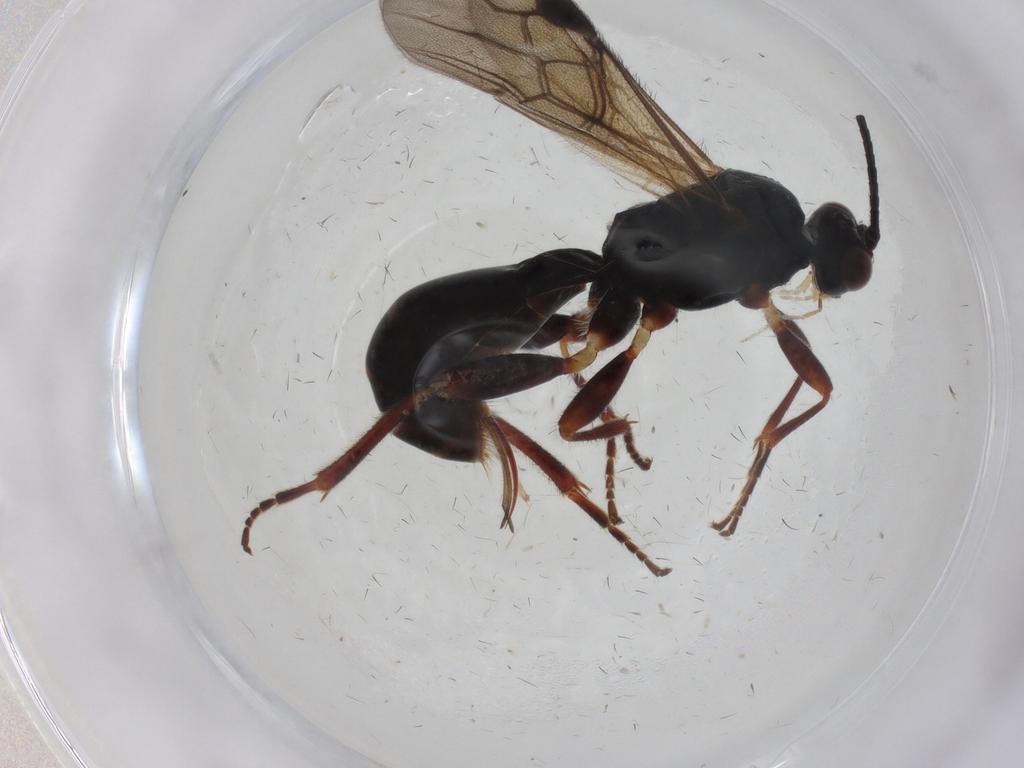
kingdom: Animalia
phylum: Arthropoda
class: Insecta
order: Hymenoptera
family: Braconidae
